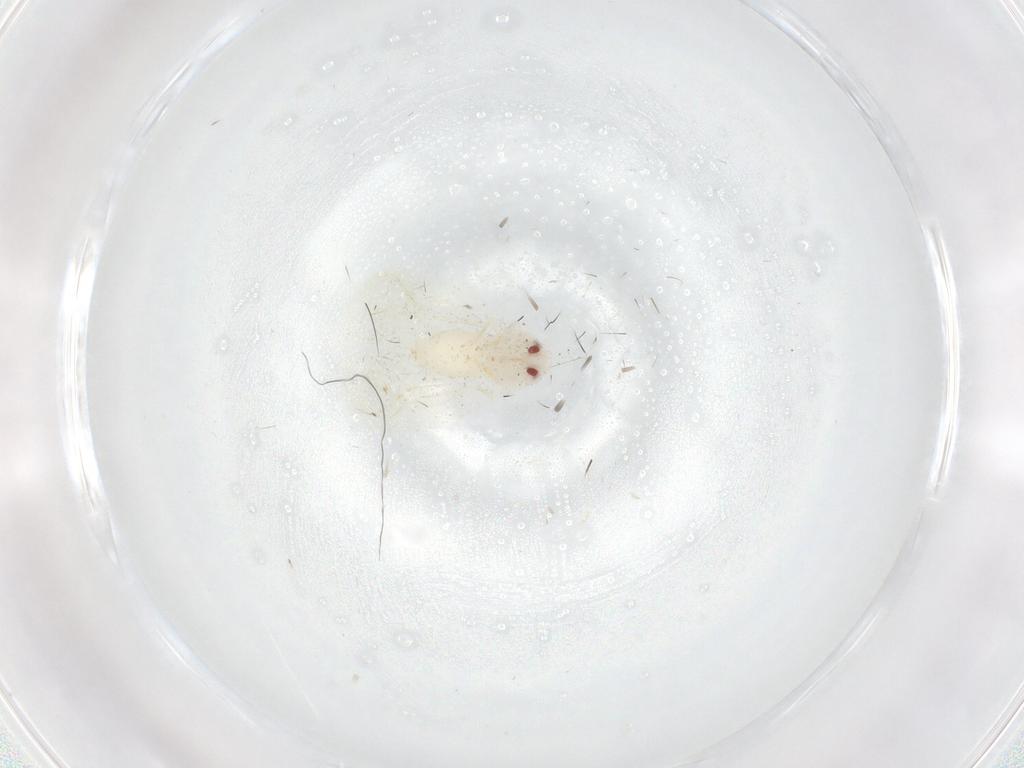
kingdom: Animalia
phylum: Arthropoda
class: Insecta
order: Hemiptera
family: Aleyrodidae
